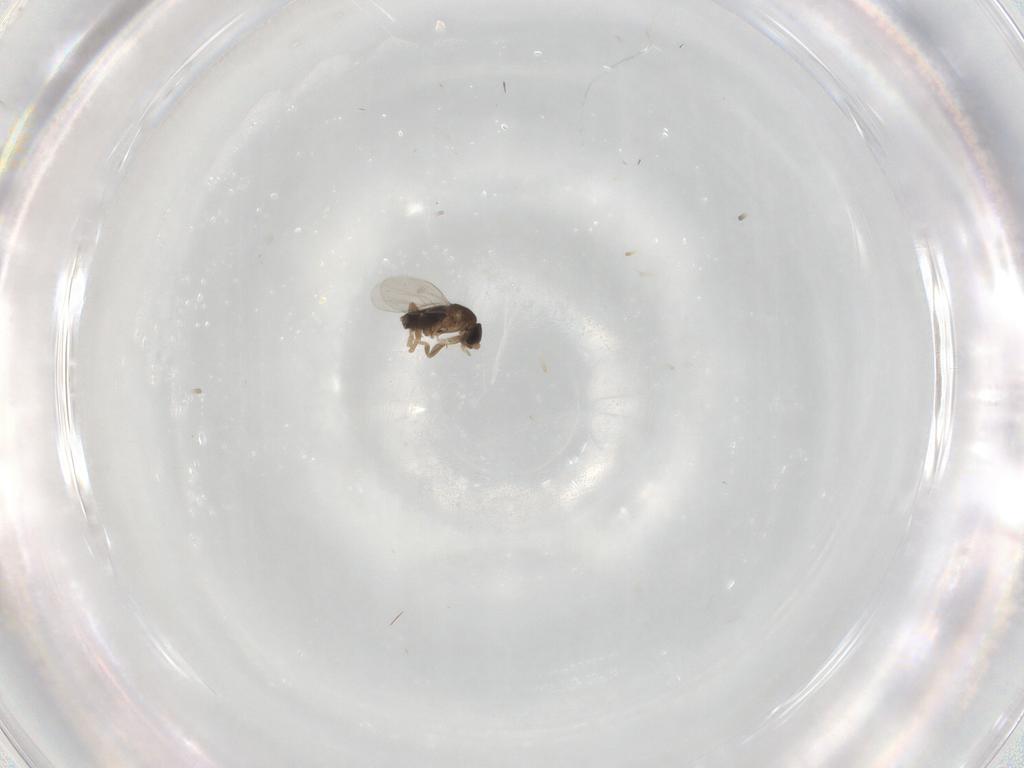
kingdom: Animalia
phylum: Arthropoda
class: Insecta
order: Diptera
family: Phoridae
